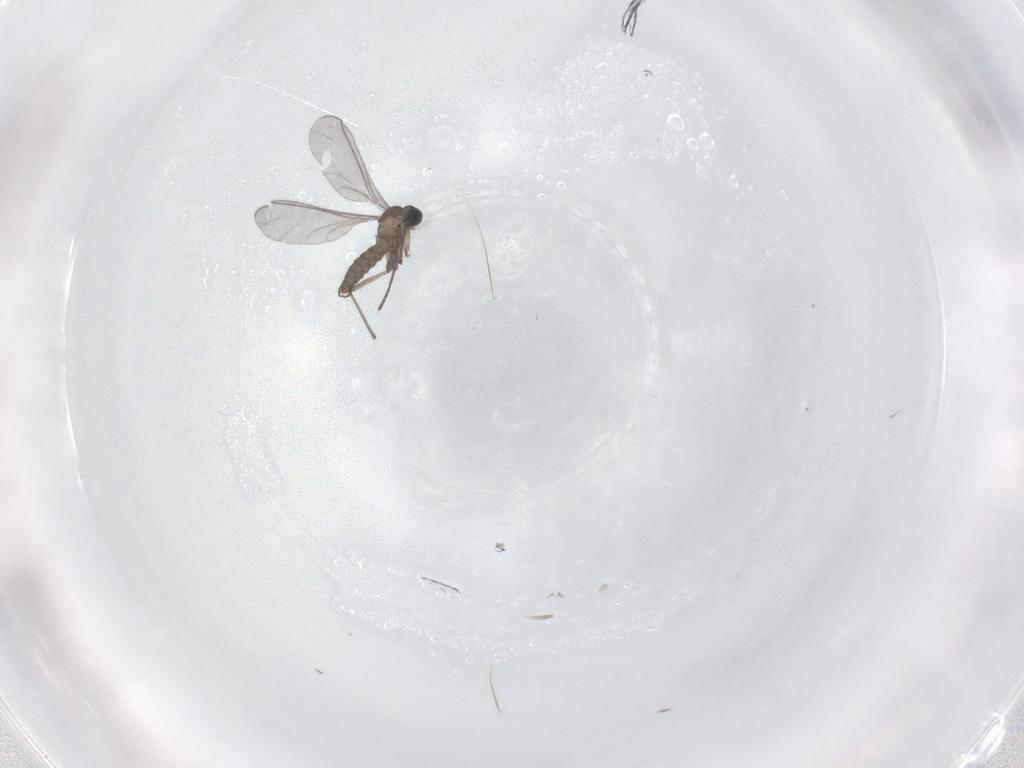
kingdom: Animalia
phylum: Arthropoda
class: Insecta
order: Diptera
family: Sciaridae
